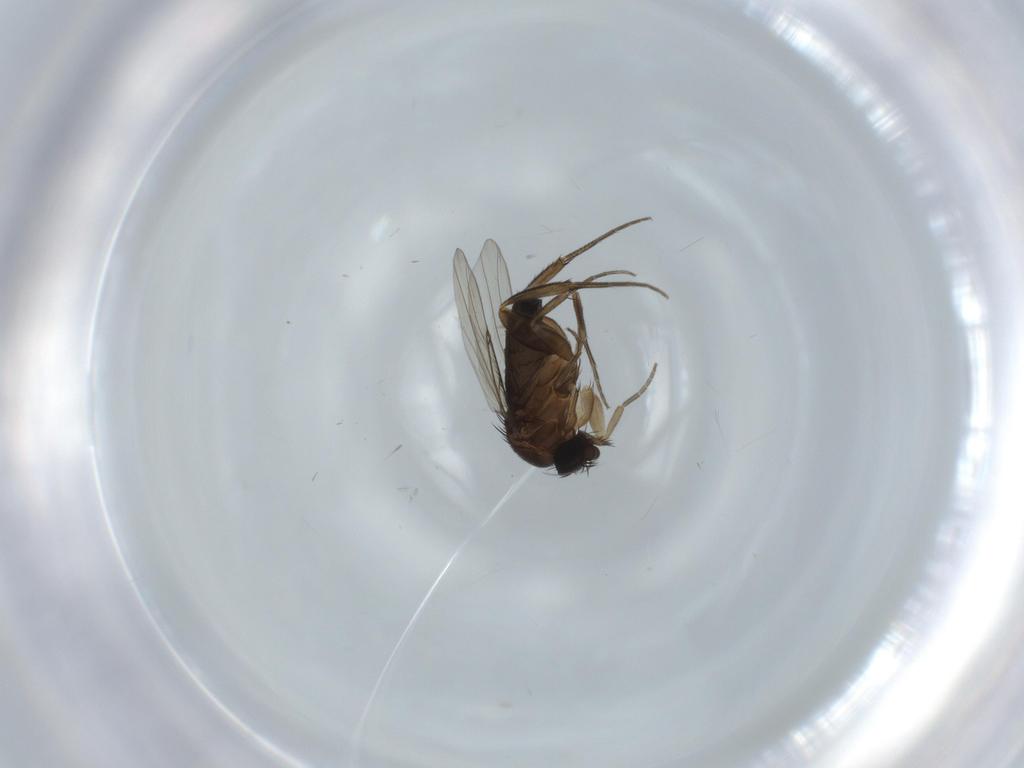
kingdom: Animalia
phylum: Arthropoda
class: Insecta
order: Diptera
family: Phoridae
